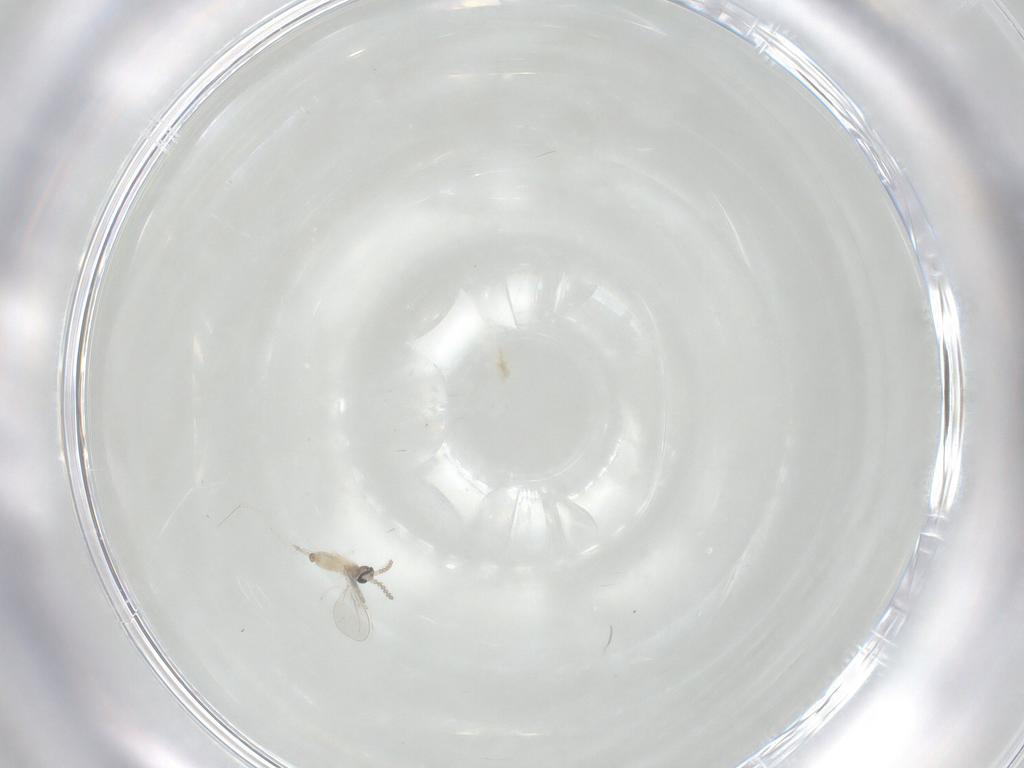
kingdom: Animalia
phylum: Arthropoda
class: Insecta
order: Diptera
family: Cecidomyiidae
